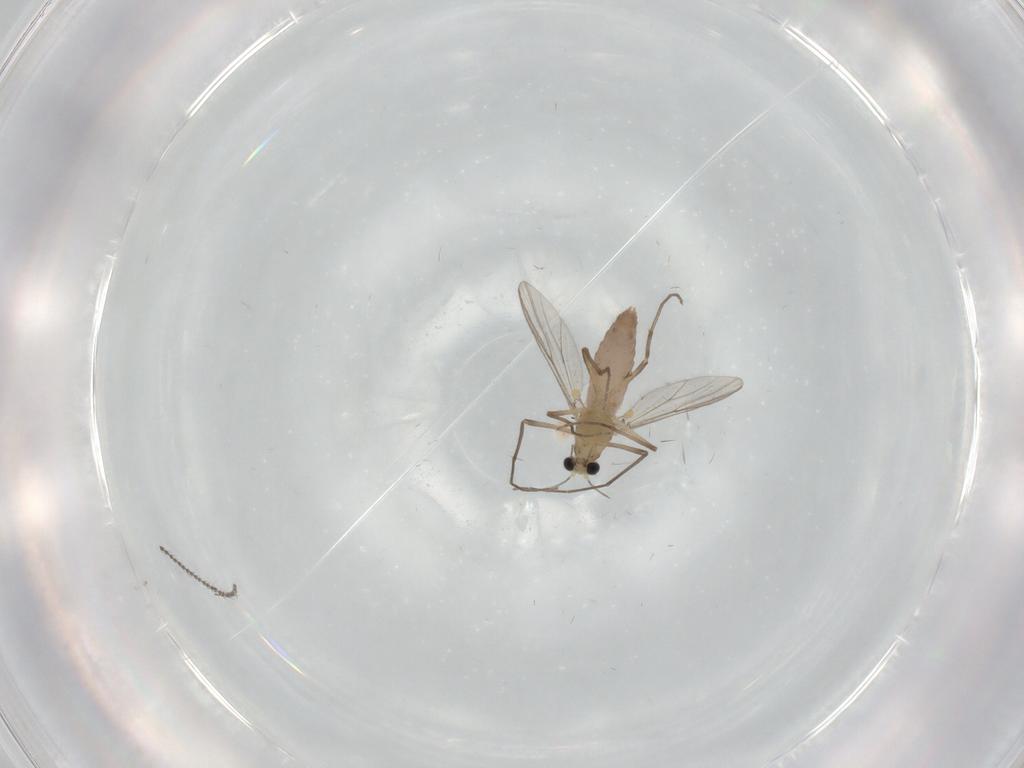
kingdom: Animalia
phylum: Arthropoda
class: Insecta
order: Diptera
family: Chironomidae
